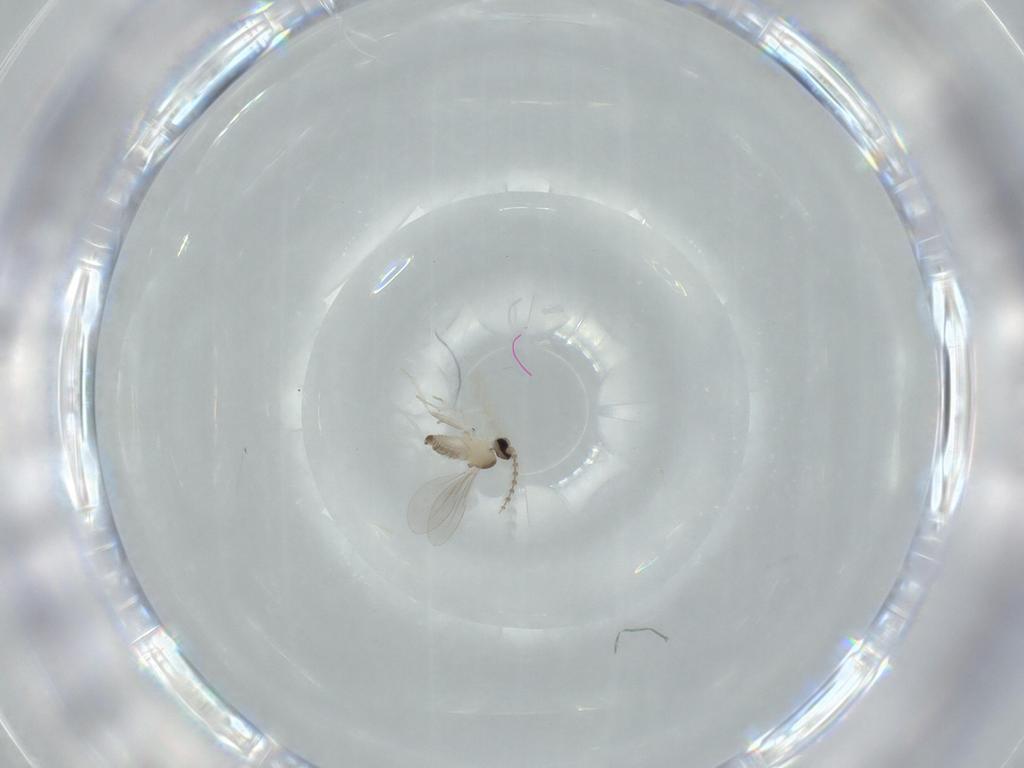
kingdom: Animalia
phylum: Arthropoda
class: Insecta
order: Diptera
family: Cecidomyiidae
